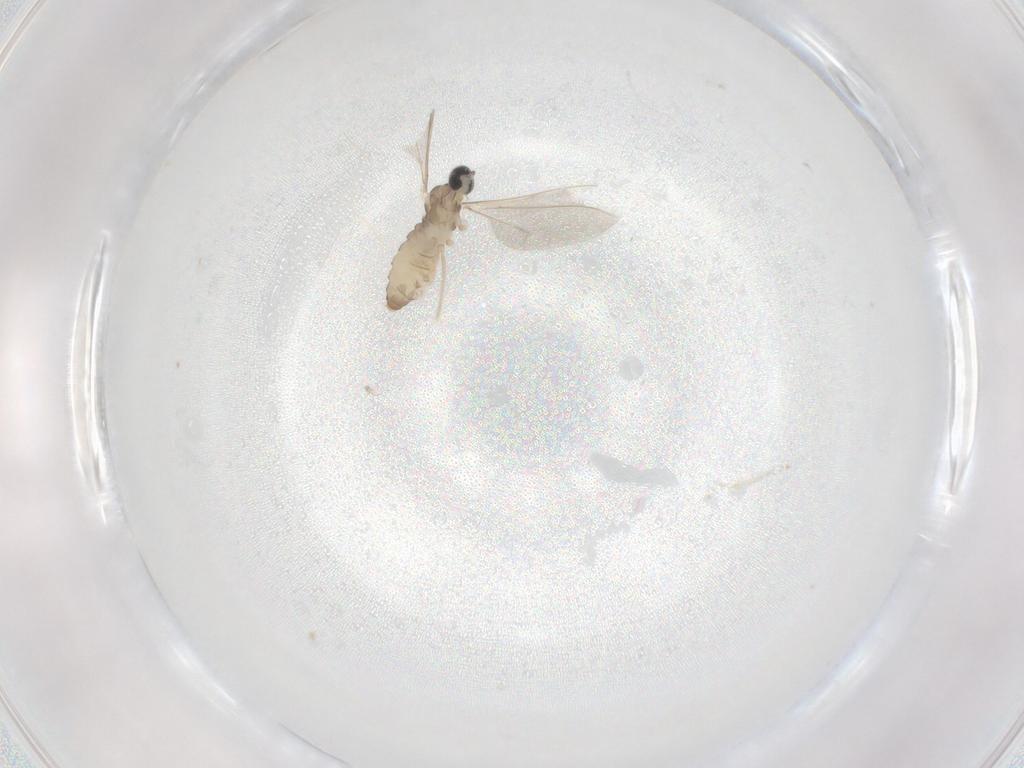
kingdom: Animalia
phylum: Arthropoda
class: Insecta
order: Diptera
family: Cecidomyiidae
